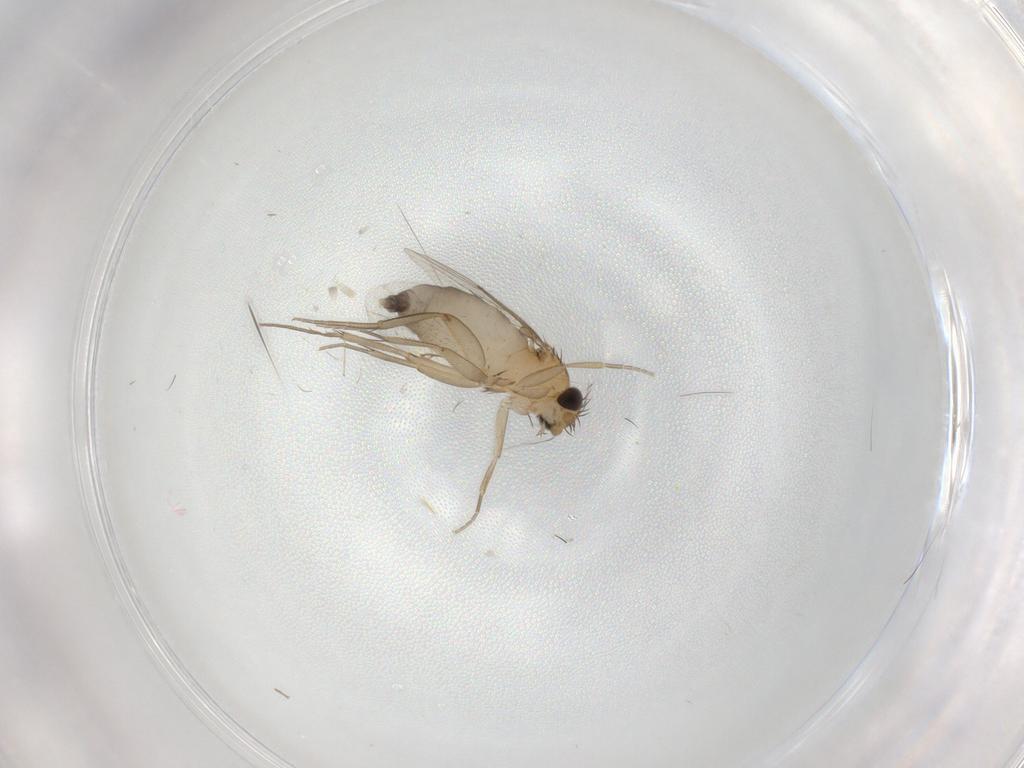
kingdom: Animalia
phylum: Arthropoda
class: Insecta
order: Diptera
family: Phoridae
